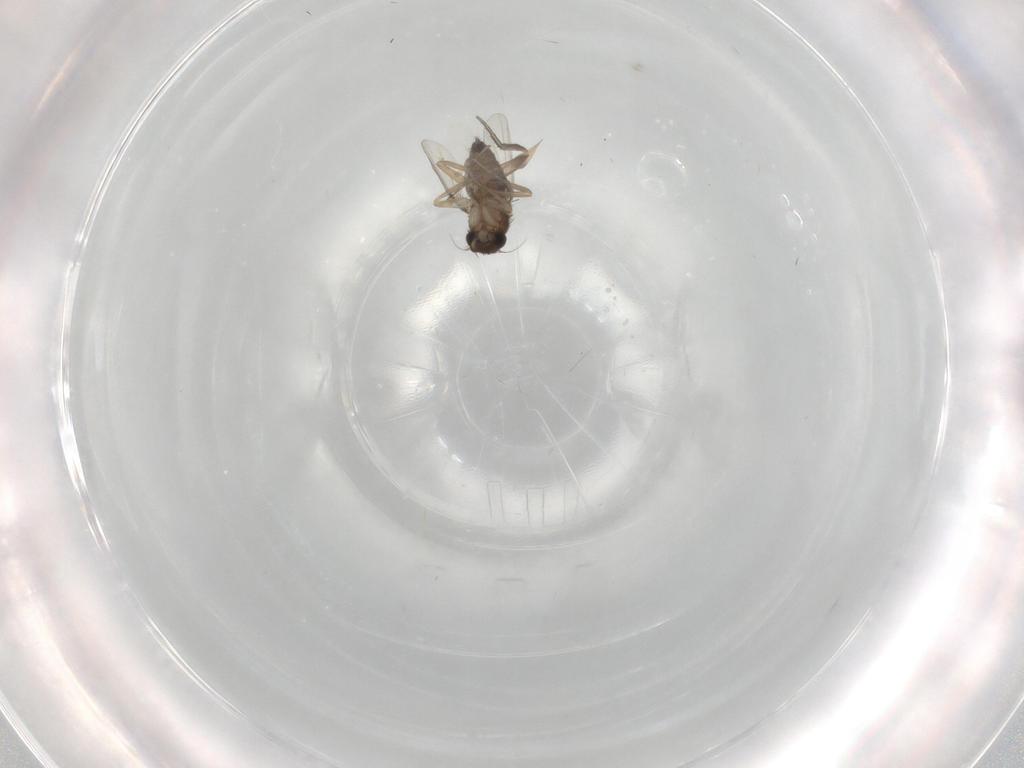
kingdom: Animalia
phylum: Arthropoda
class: Insecta
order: Diptera
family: Phoridae
